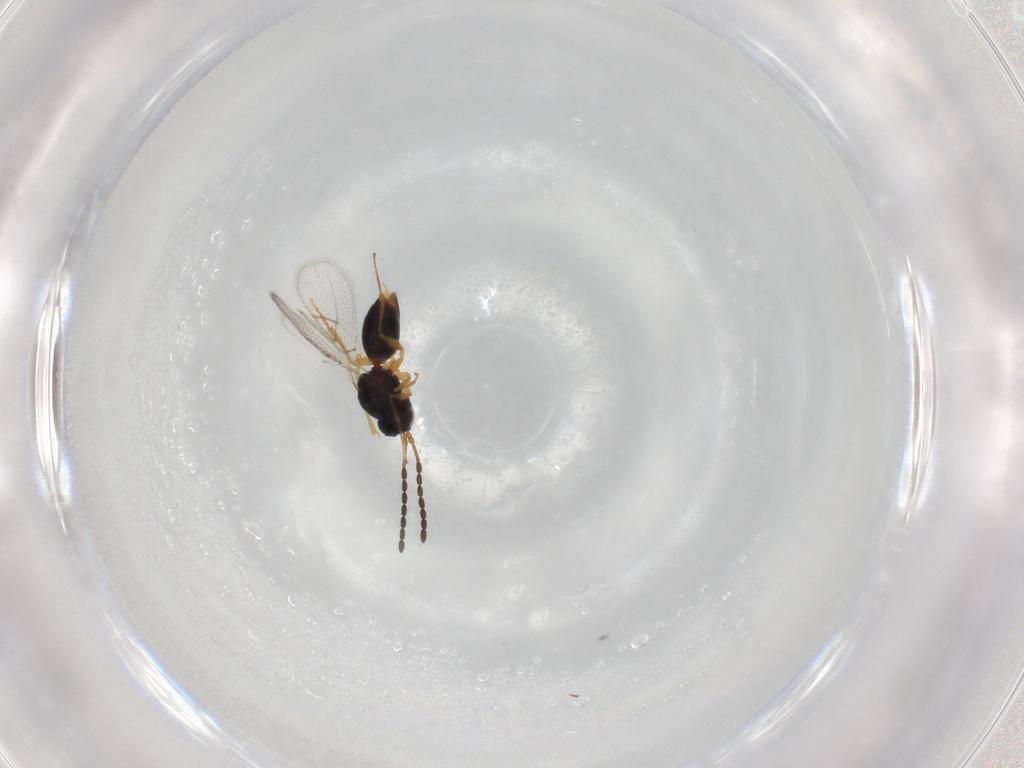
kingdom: Animalia
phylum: Arthropoda
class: Insecta
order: Hymenoptera
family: Figitidae
